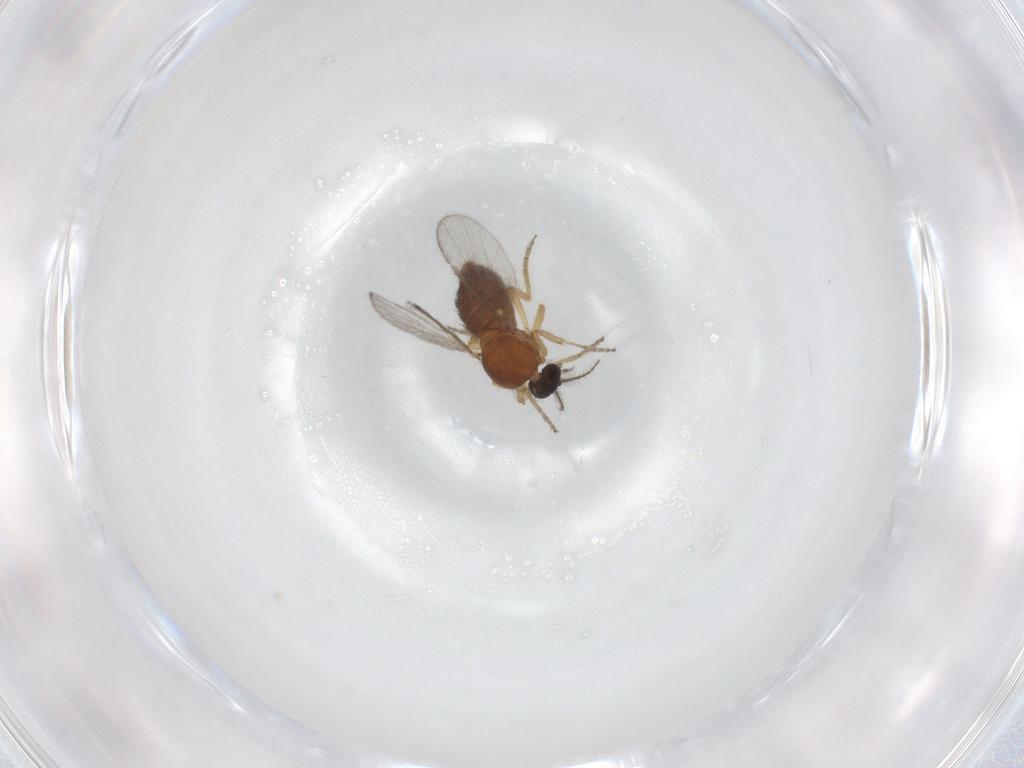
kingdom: Animalia
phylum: Arthropoda
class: Insecta
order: Diptera
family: Ceratopogonidae
